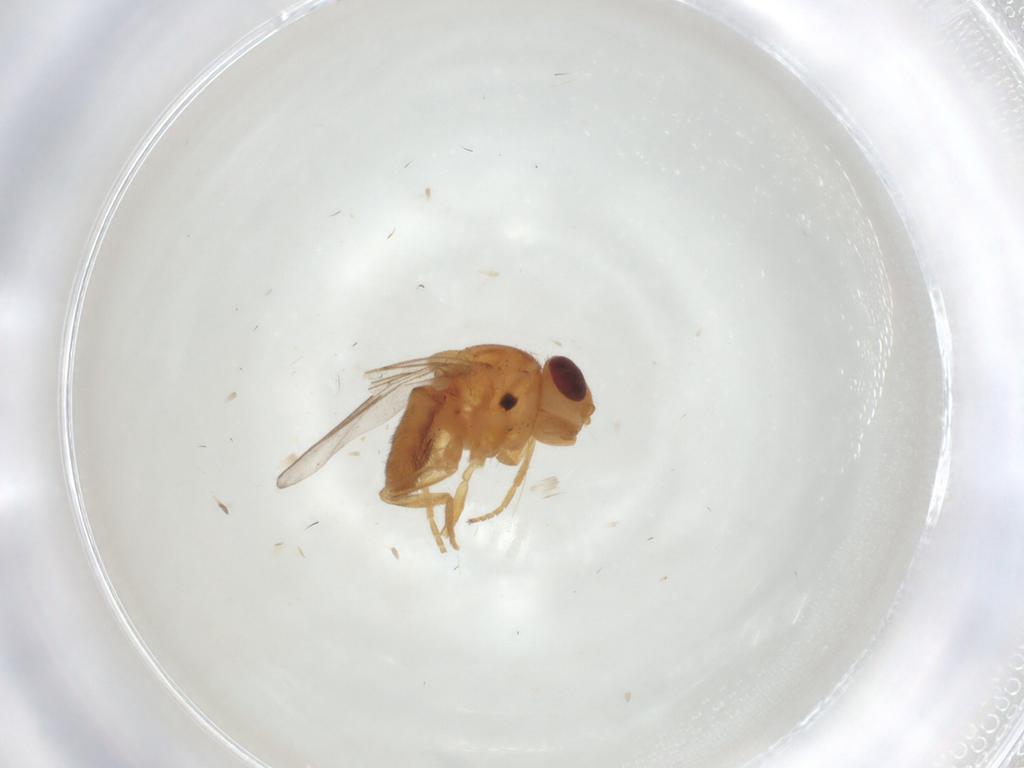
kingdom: Animalia
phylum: Arthropoda
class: Insecta
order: Diptera
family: Chloropidae
